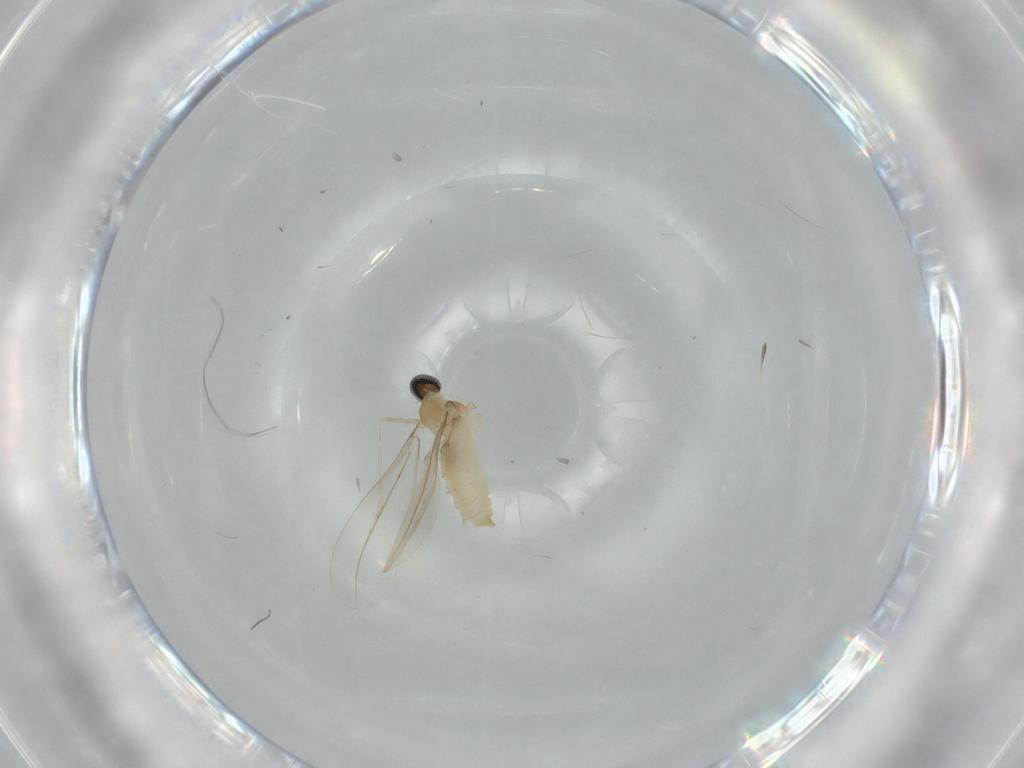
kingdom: Animalia
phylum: Arthropoda
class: Insecta
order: Diptera
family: Cecidomyiidae
